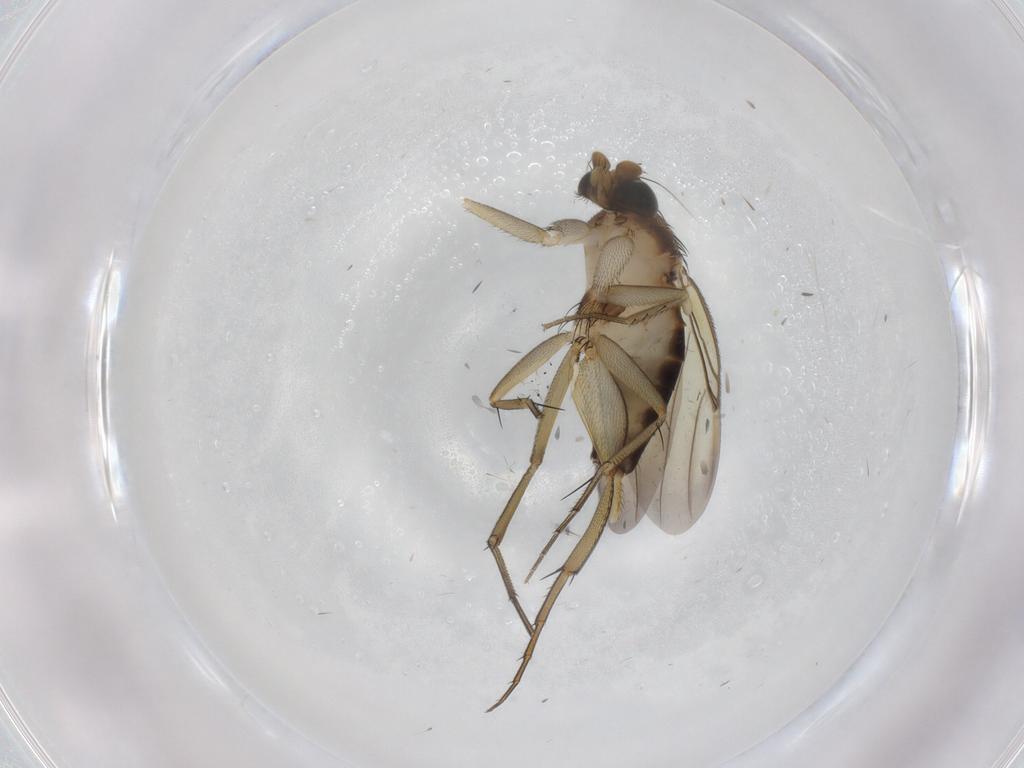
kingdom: Animalia
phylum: Arthropoda
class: Insecta
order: Diptera
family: Phoridae
